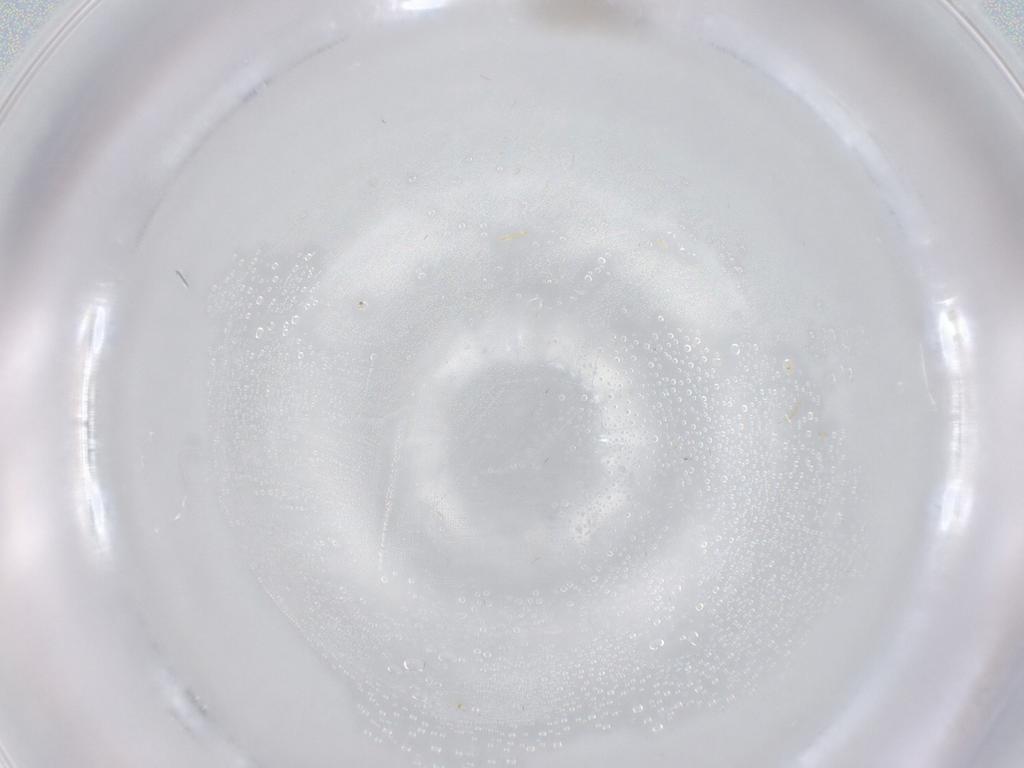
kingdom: Animalia
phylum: Arthropoda
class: Insecta
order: Diptera
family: Chironomidae
